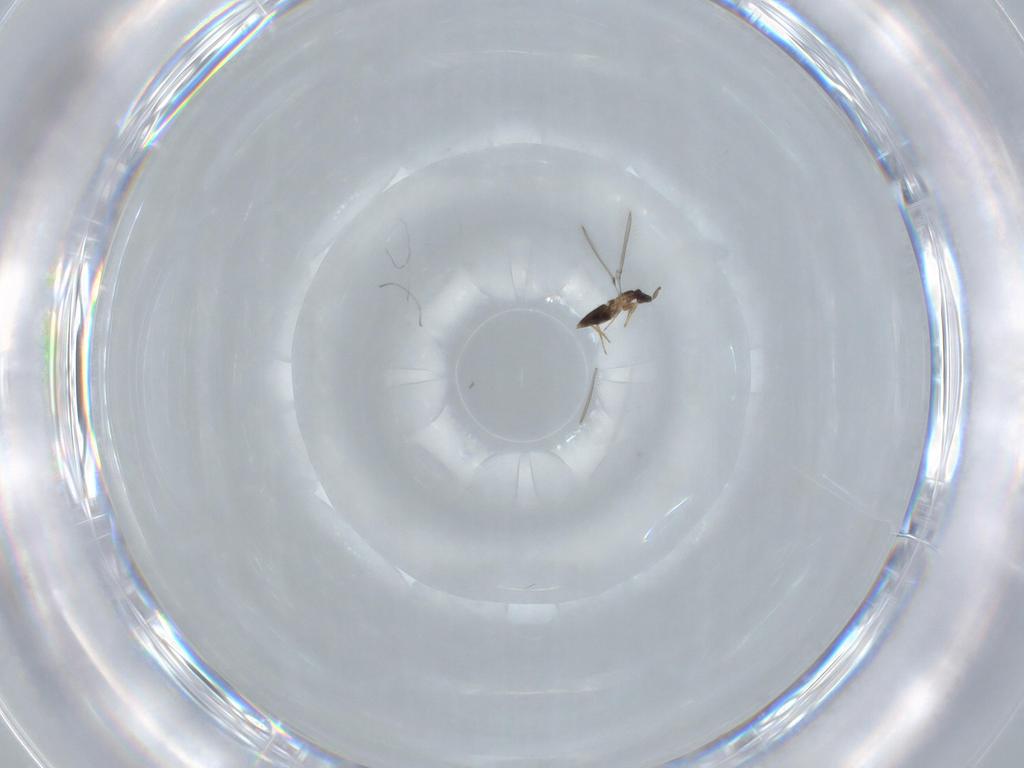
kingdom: Animalia
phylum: Arthropoda
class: Insecta
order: Hymenoptera
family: Mymaridae
